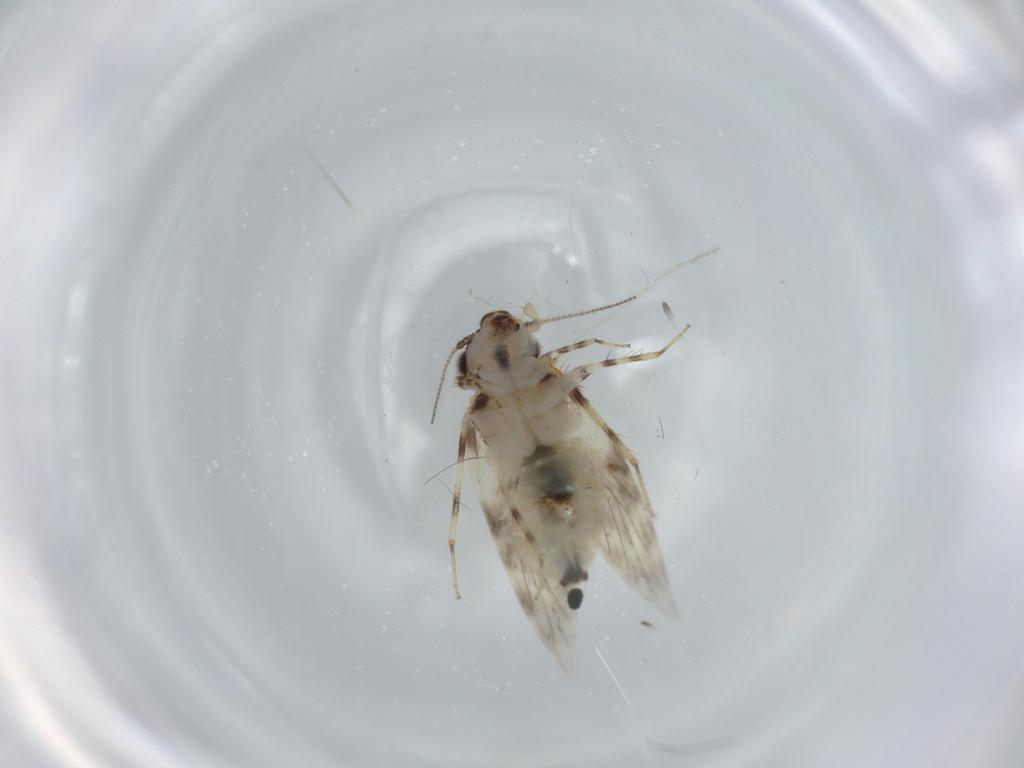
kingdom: Animalia
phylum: Arthropoda
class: Insecta
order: Psocodea
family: Lepidopsocidae
